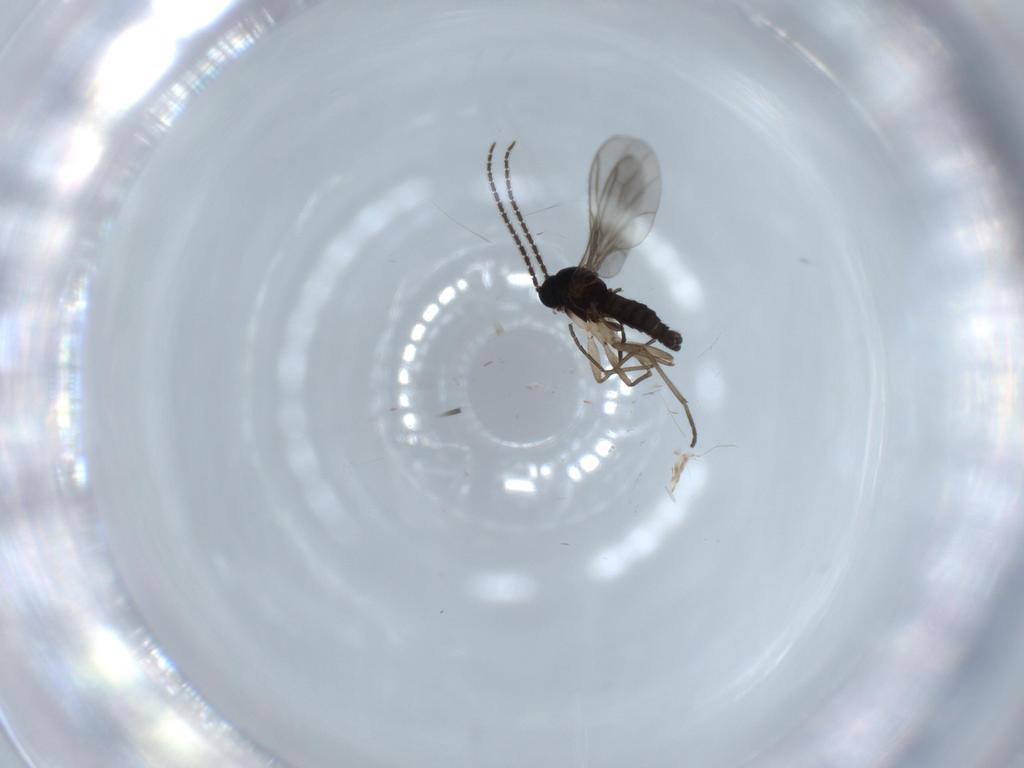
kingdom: Animalia
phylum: Arthropoda
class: Insecta
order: Diptera
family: Sciaridae
